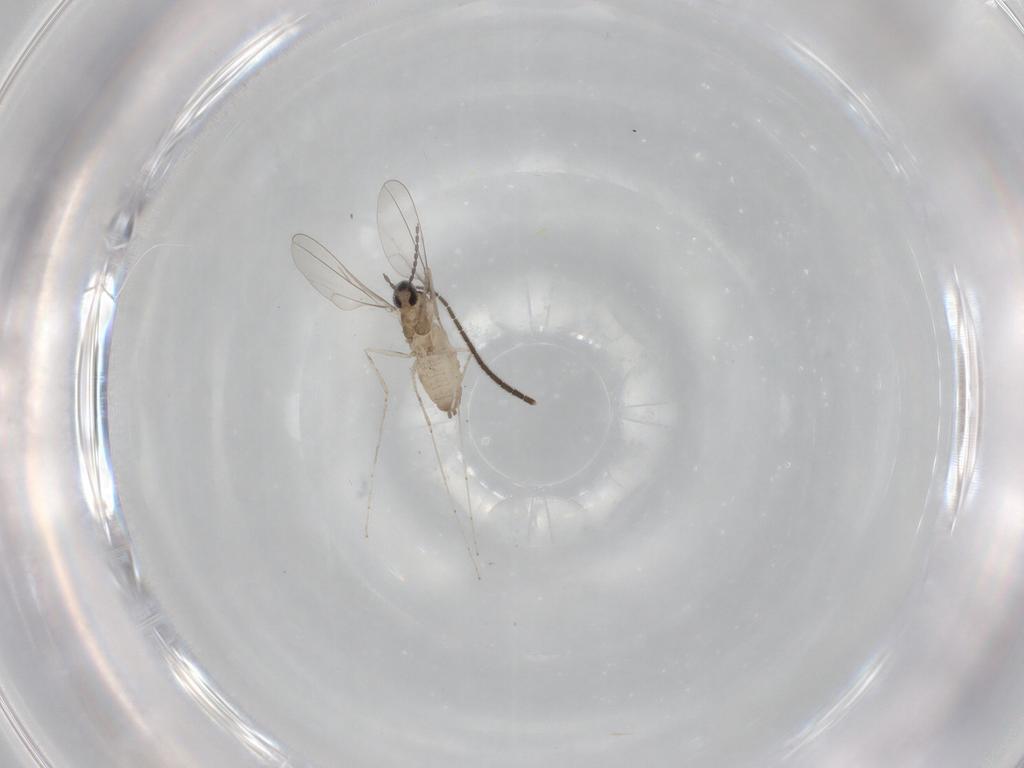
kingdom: Animalia
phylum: Arthropoda
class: Insecta
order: Diptera
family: Cecidomyiidae
